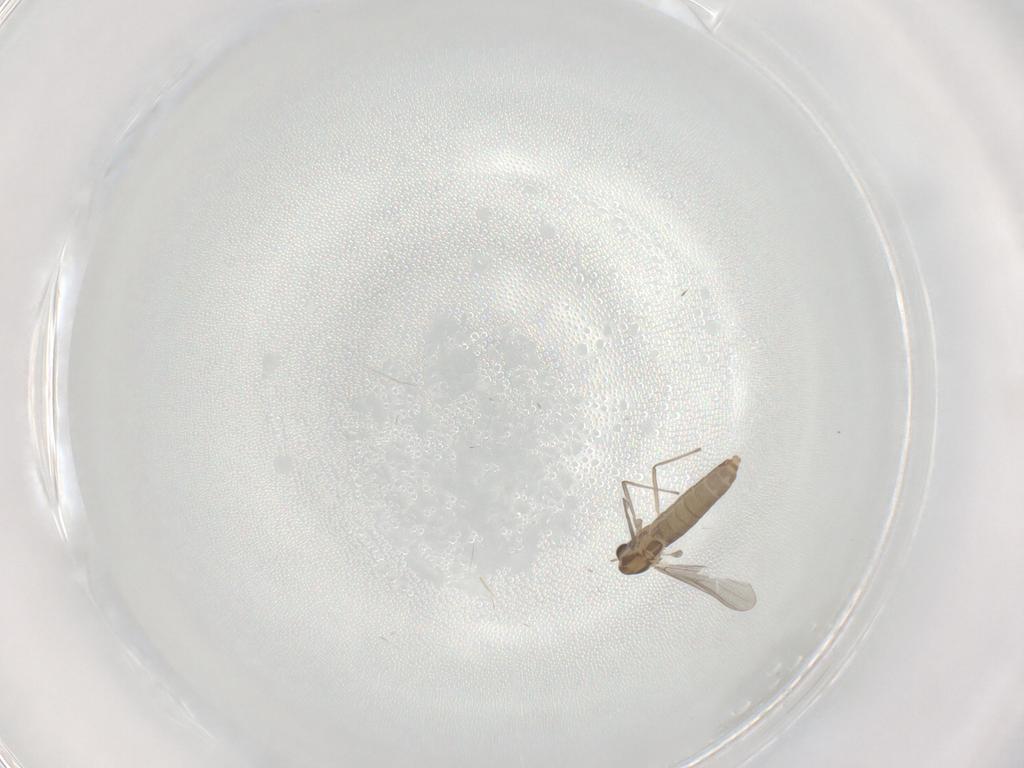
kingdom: Animalia
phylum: Arthropoda
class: Insecta
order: Diptera
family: Ceratopogonidae
